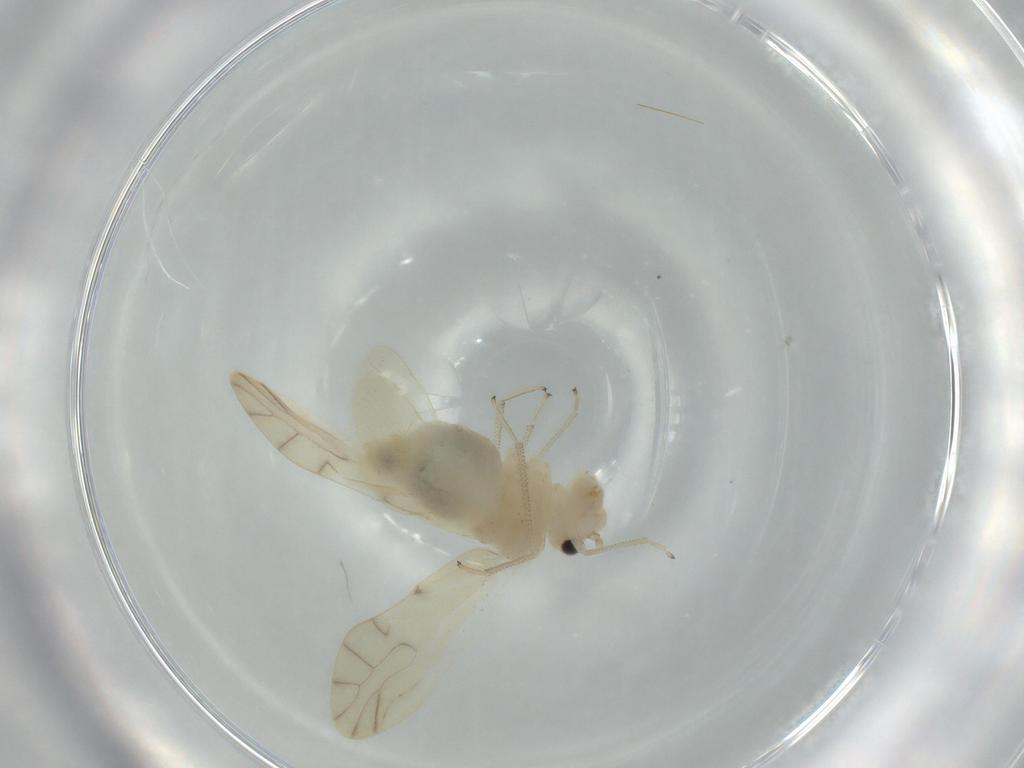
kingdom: Animalia
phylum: Arthropoda
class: Insecta
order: Psocodea
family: Caeciliusidae
